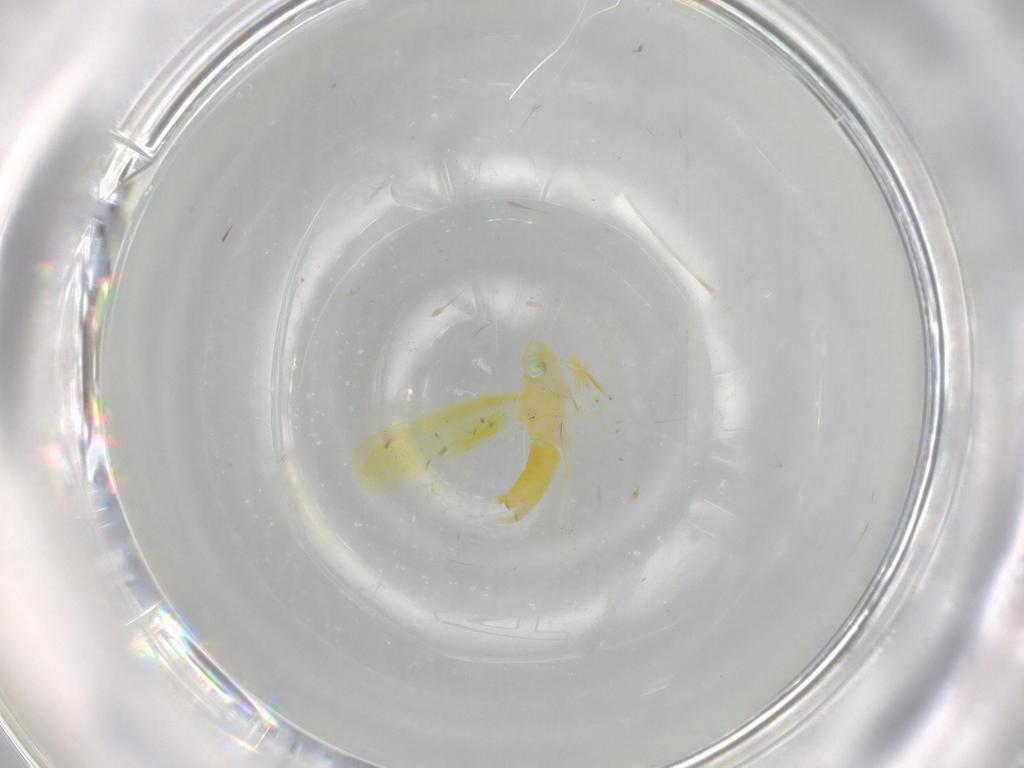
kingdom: Animalia
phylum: Arthropoda
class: Insecta
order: Hemiptera
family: Cicadellidae
